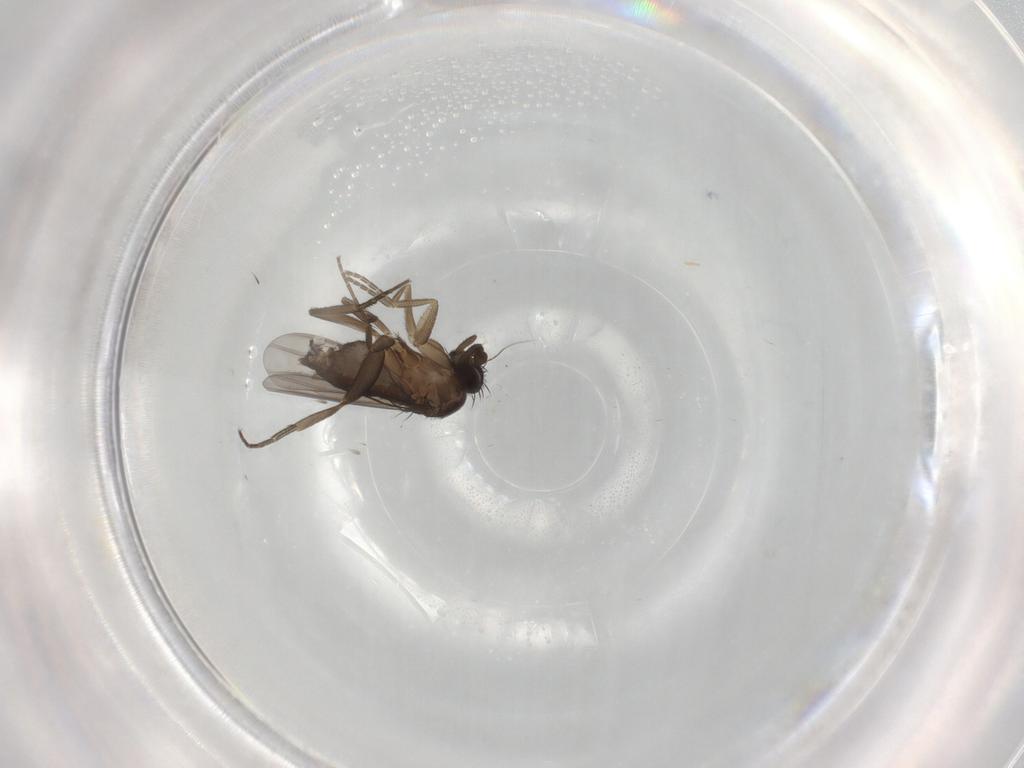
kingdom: Animalia
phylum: Arthropoda
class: Insecta
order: Diptera
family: Phoridae
